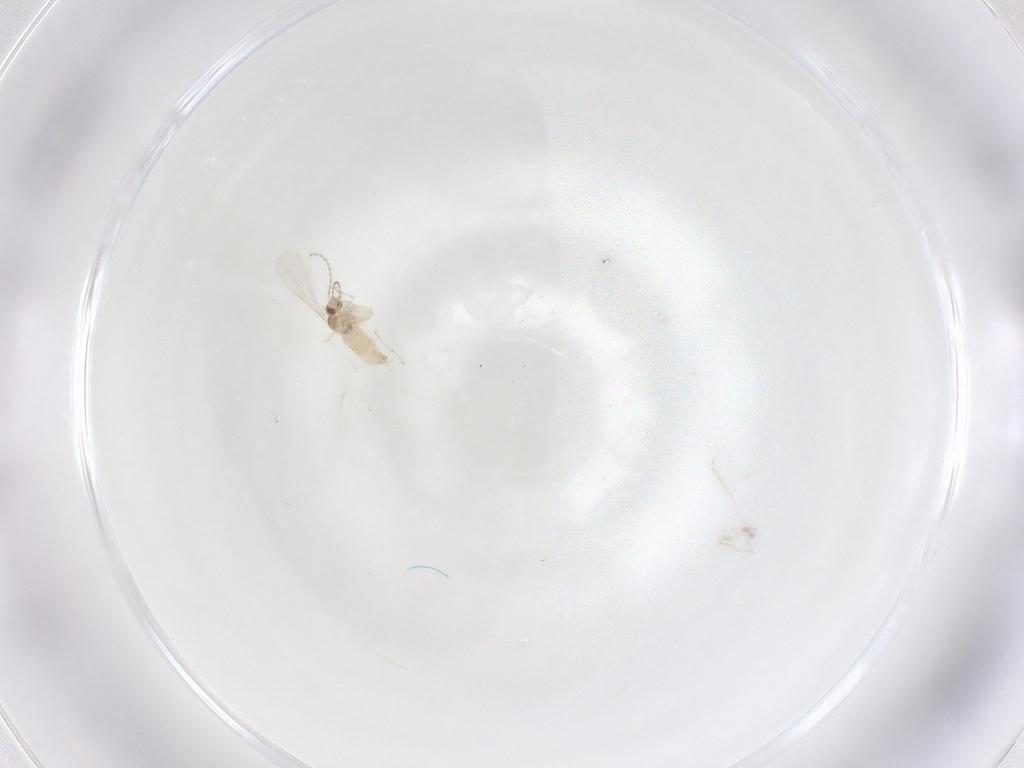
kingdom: Animalia
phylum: Arthropoda
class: Insecta
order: Diptera
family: Cecidomyiidae
